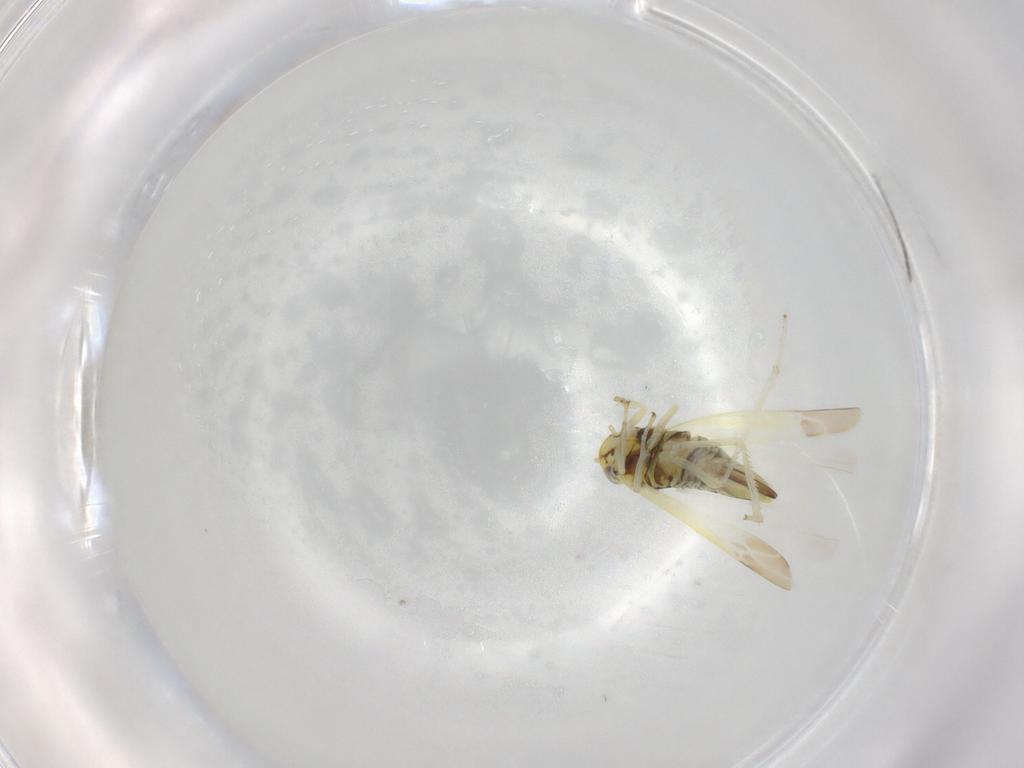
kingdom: Animalia
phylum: Arthropoda
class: Insecta
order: Hemiptera
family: Cicadellidae
